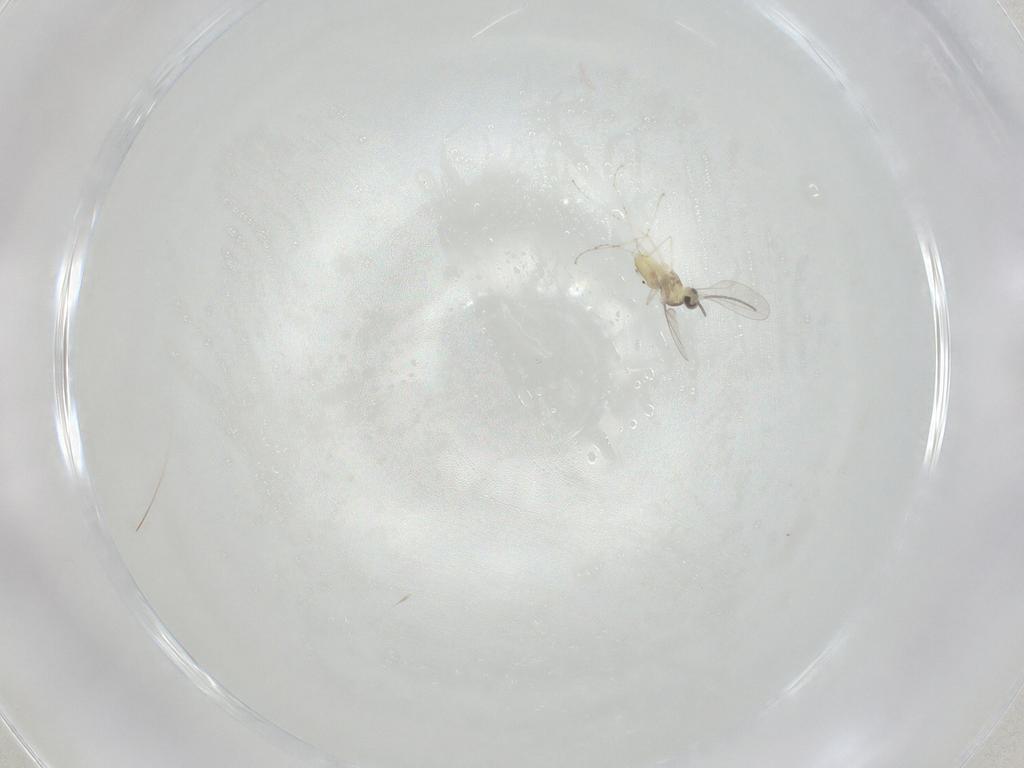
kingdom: Animalia
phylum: Arthropoda
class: Insecta
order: Diptera
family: Cecidomyiidae
